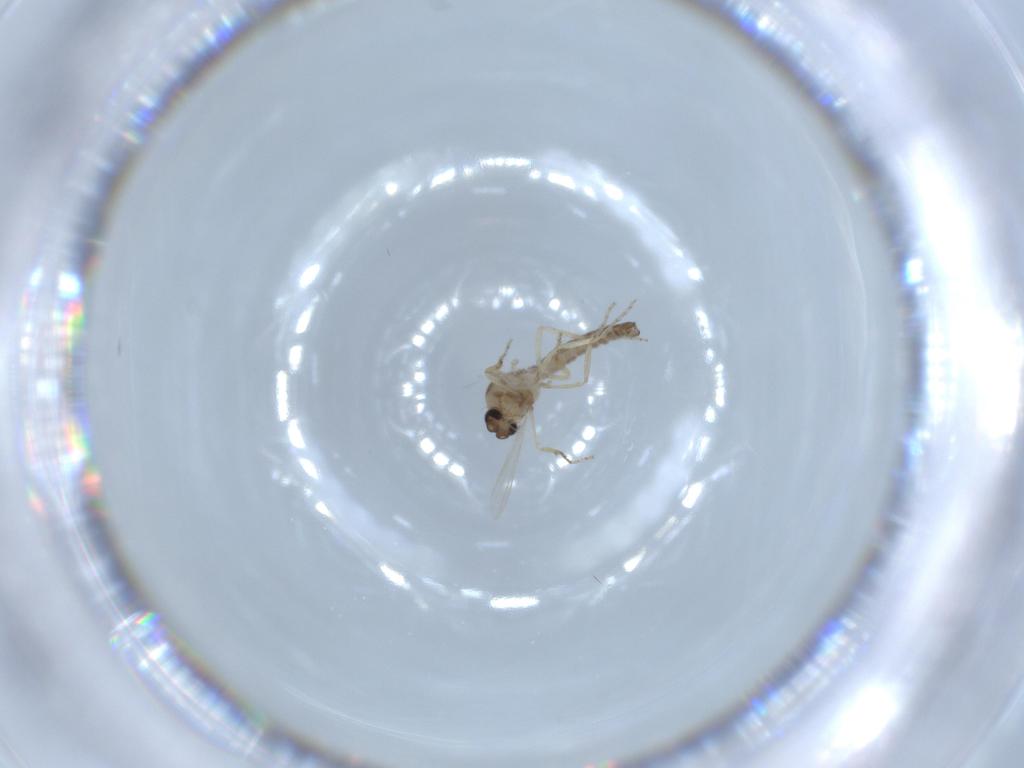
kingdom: Animalia
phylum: Arthropoda
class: Insecta
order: Diptera
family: Ceratopogonidae
